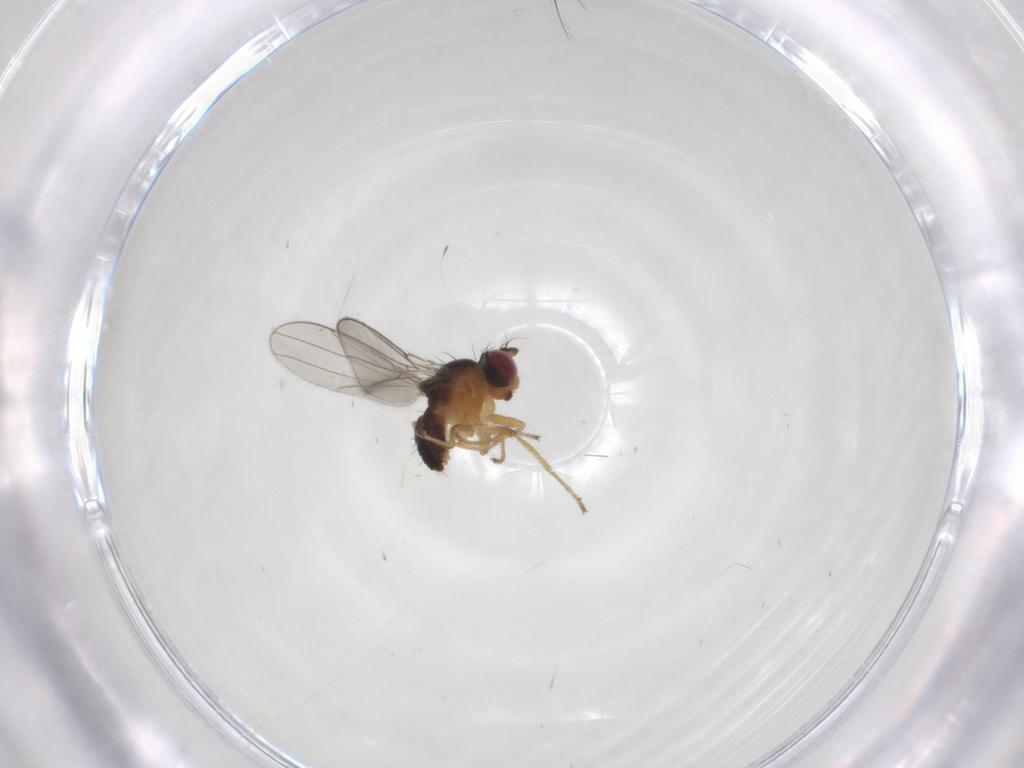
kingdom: Animalia
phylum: Arthropoda
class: Insecta
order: Diptera
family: Ephydridae
